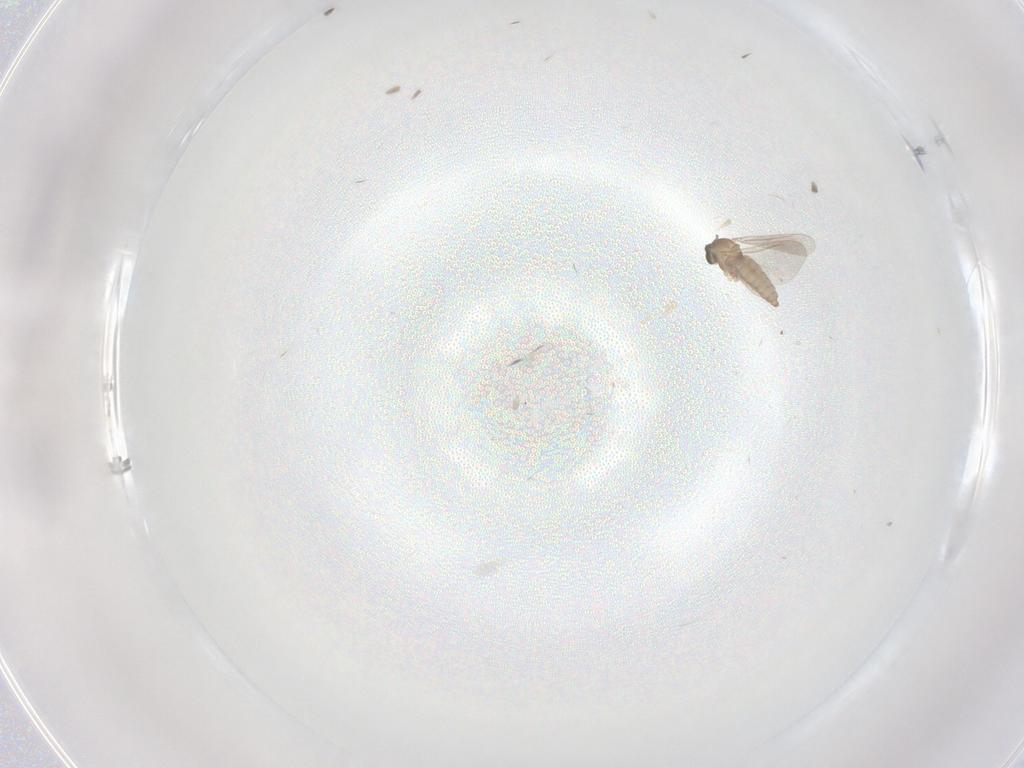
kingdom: Animalia
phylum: Arthropoda
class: Insecta
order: Diptera
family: Cecidomyiidae
